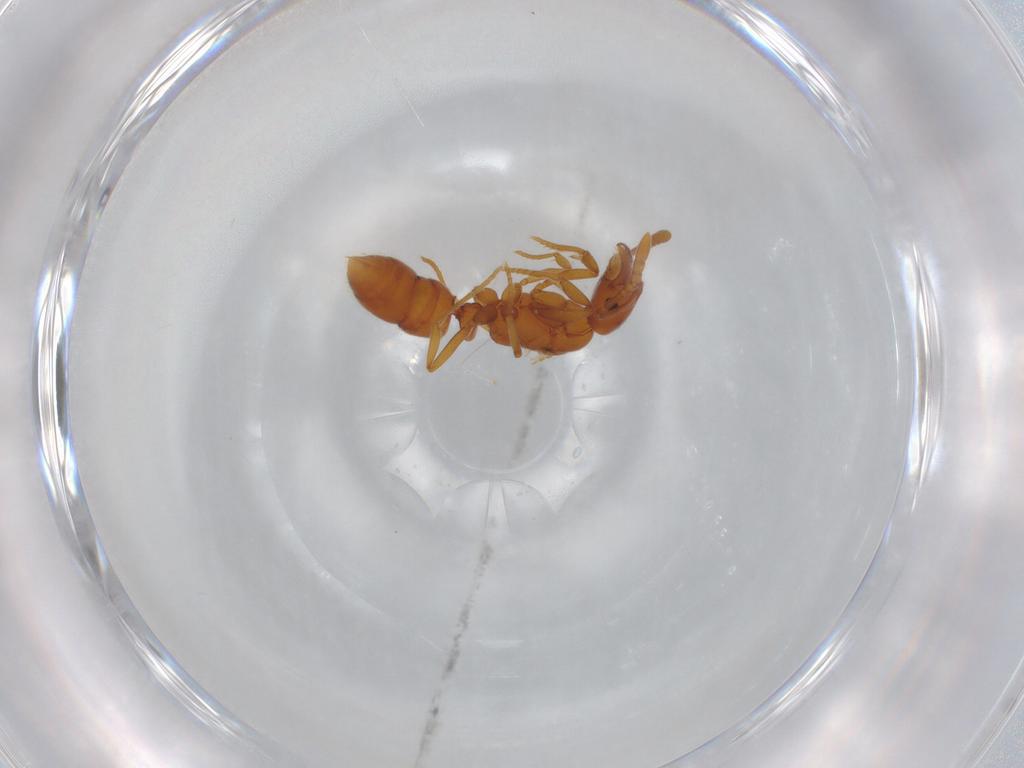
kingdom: Animalia
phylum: Arthropoda
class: Insecta
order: Hymenoptera
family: Formicidae
